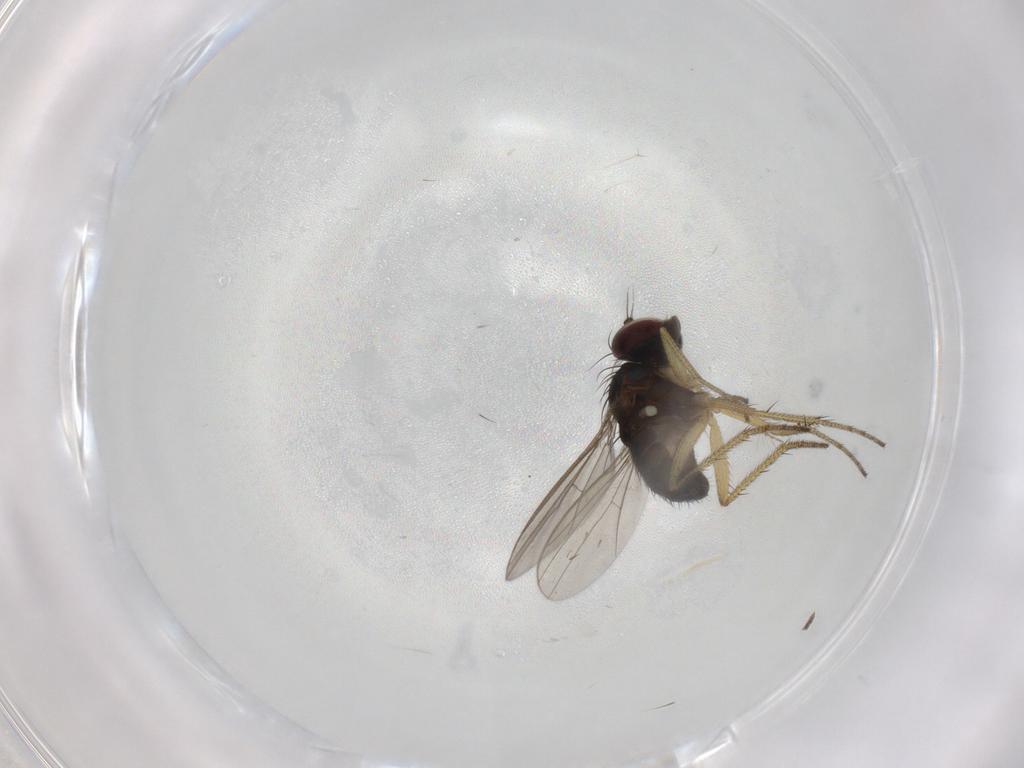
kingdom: Animalia
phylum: Arthropoda
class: Insecta
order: Diptera
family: Dolichopodidae
